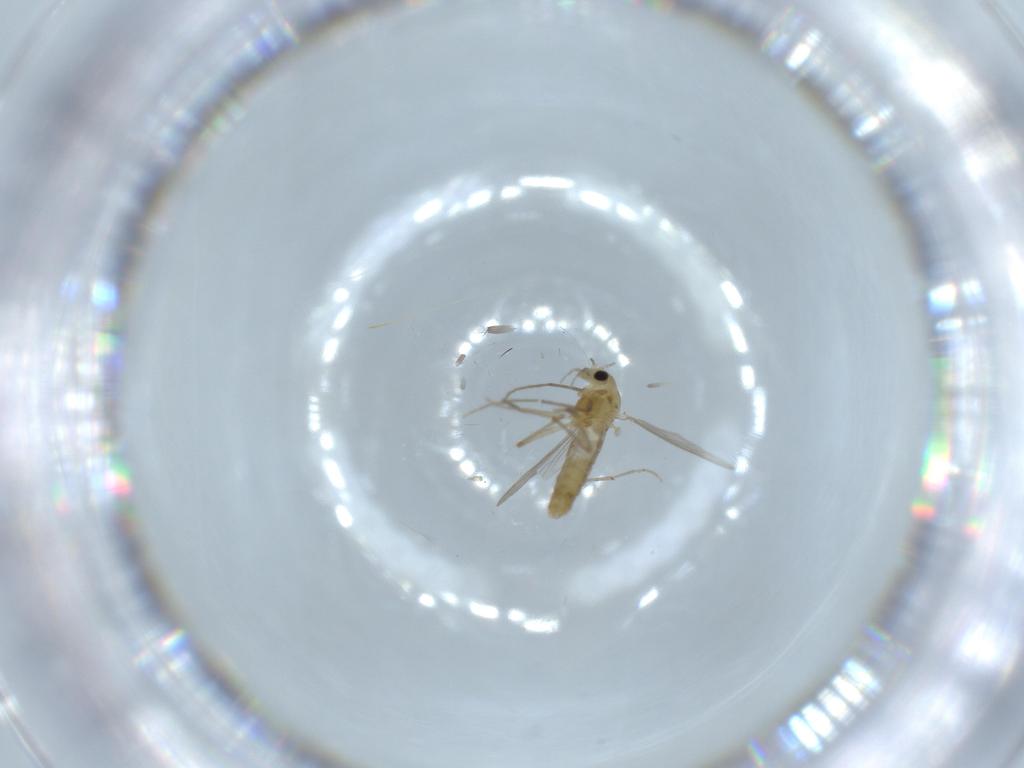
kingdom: Animalia
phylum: Arthropoda
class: Insecta
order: Diptera
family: Chironomidae
